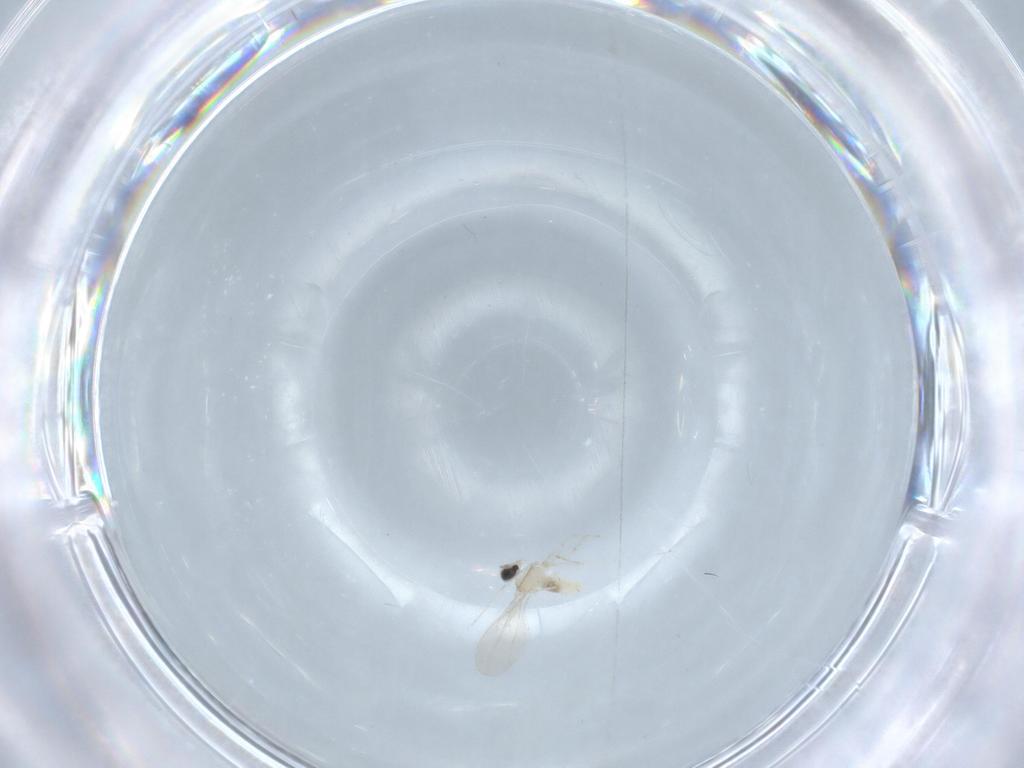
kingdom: Animalia
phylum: Arthropoda
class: Insecta
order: Diptera
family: Cecidomyiidae
